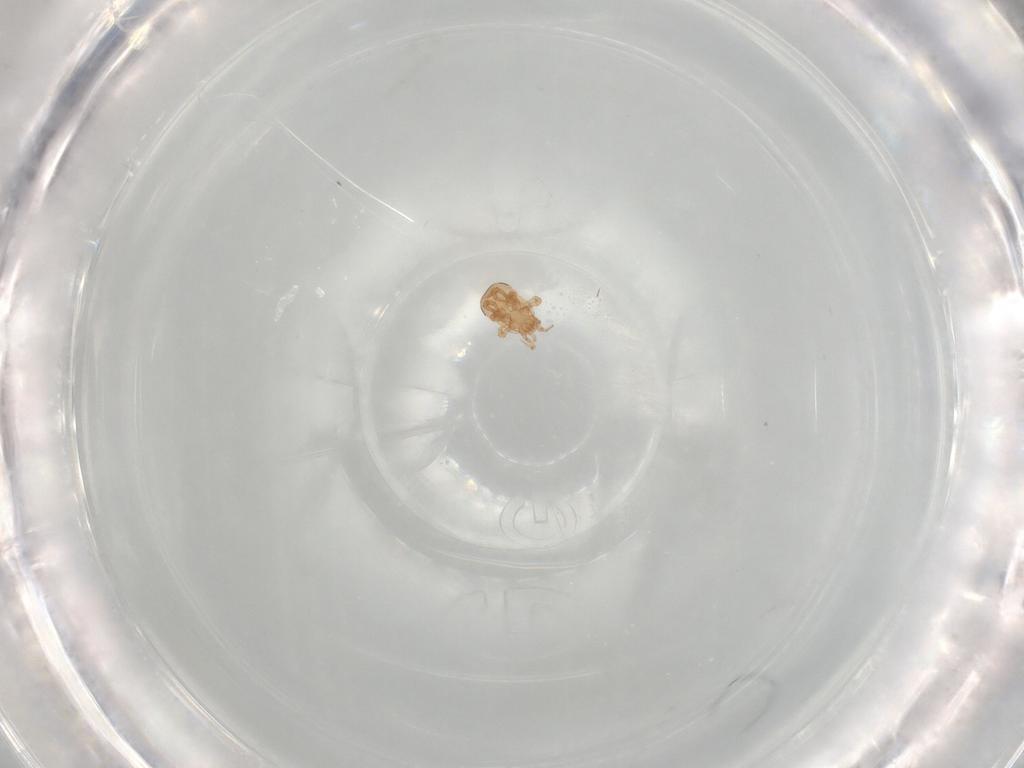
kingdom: Animalia
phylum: Arthropoda
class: Arachnida
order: Mesostigmata
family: Ascidae
